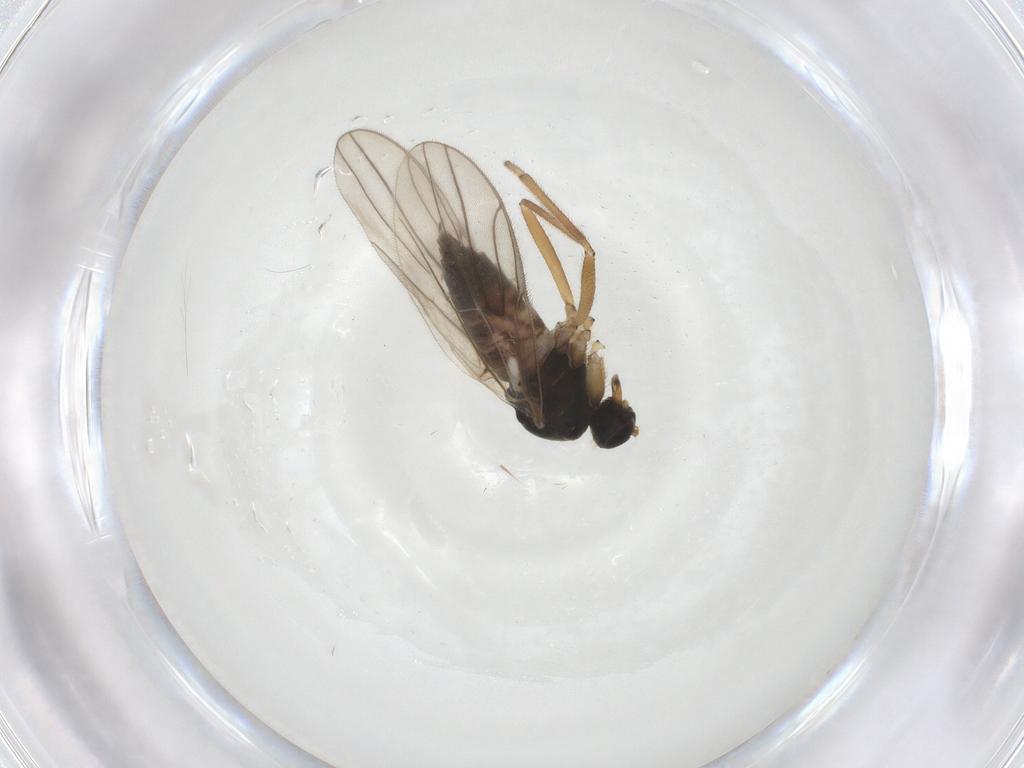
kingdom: Animalia
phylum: Arthropoda
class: Insecta
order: Diptera
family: Hybotidae
